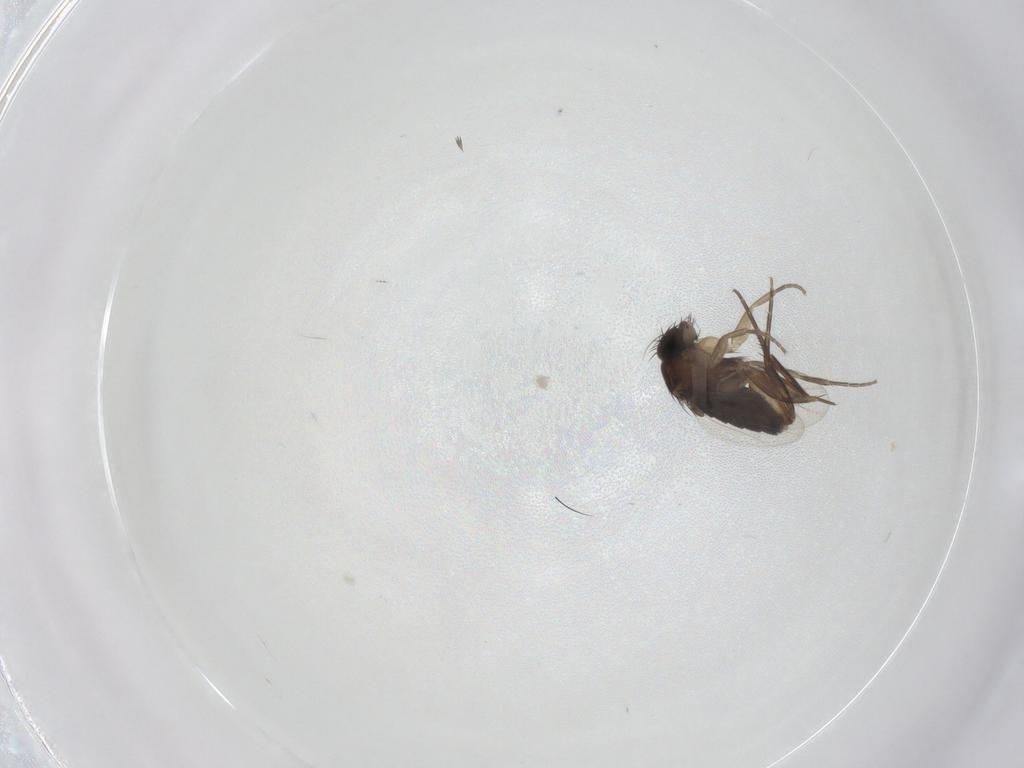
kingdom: Animalia
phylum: Arthropoda
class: Insecta
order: Diptera
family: Phoridae
